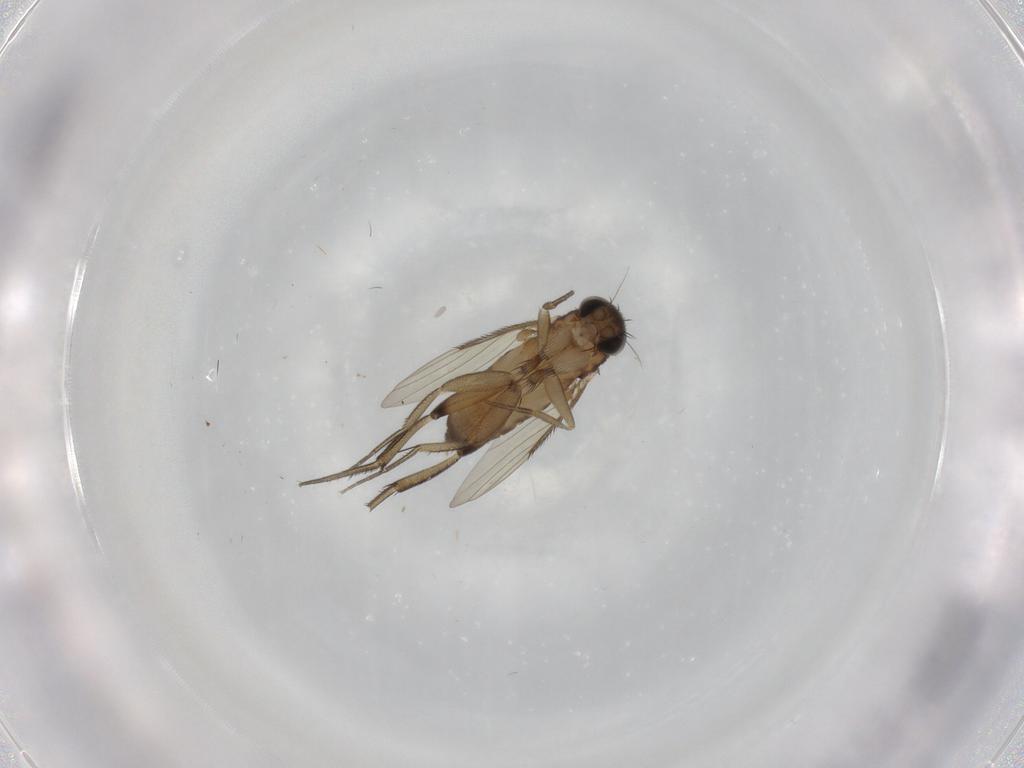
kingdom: Animalia
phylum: Arthropoda
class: Insecta
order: Diptera
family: Phoridae
